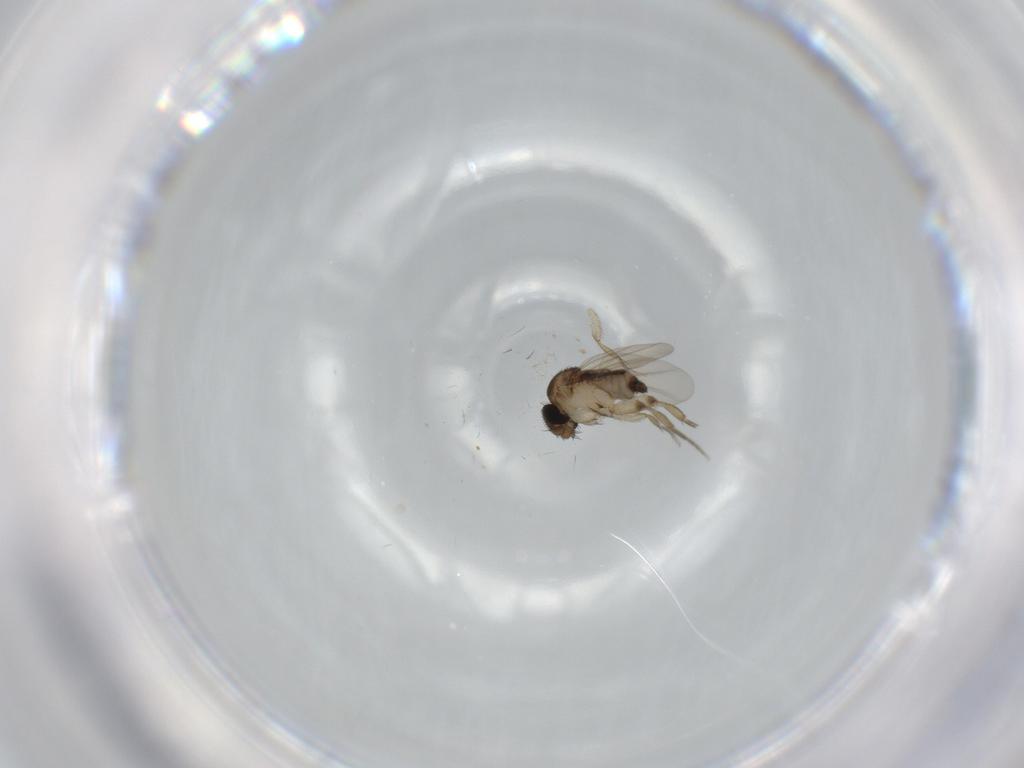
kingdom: Animalia
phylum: Arthropoda
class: Insecta
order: Diptera
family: Phoridae
